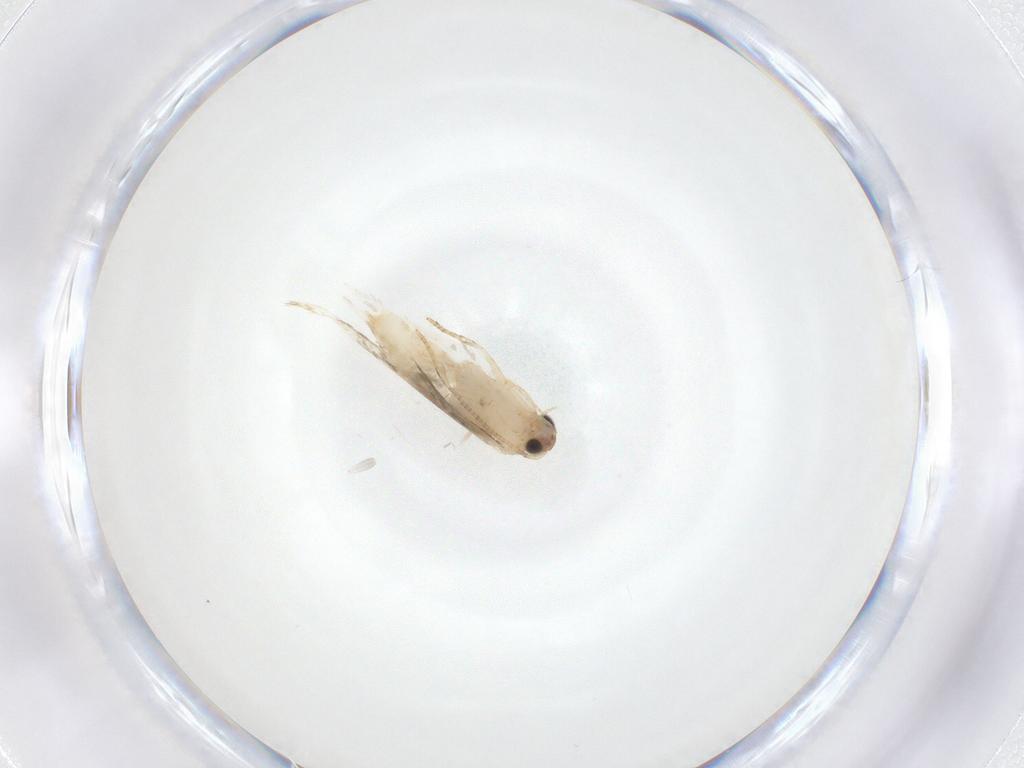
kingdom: Animalia
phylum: Arthropoda
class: Insecta
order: Lepidoptera
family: Tineidae
